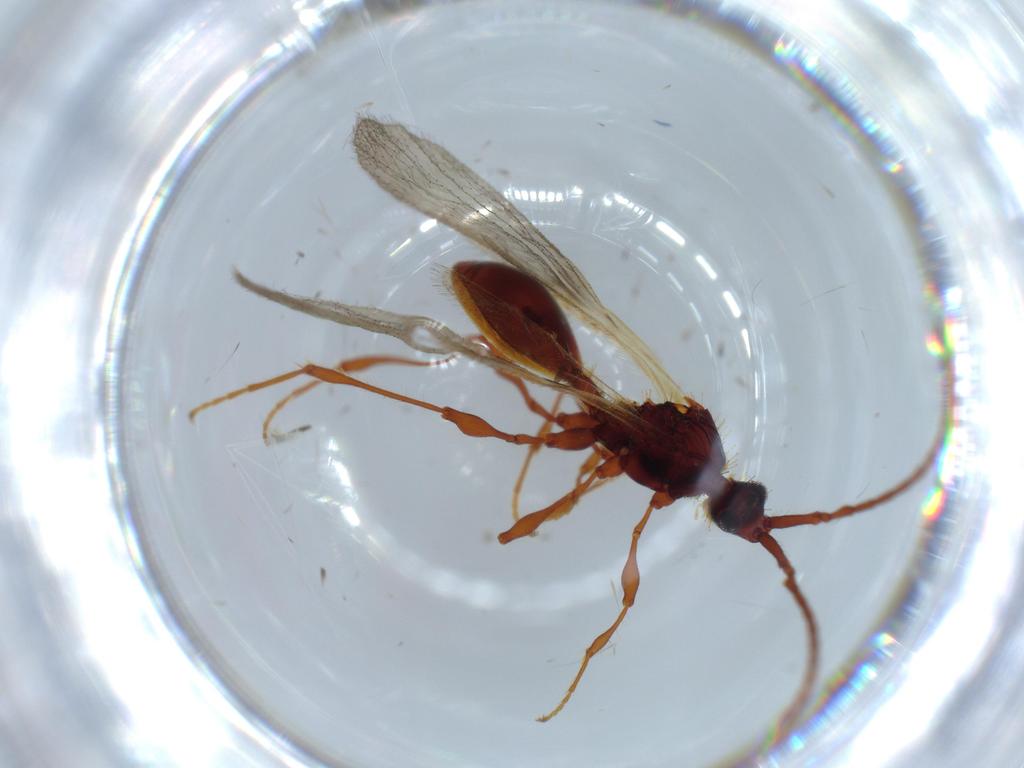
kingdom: Animalia
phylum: Arthropoda
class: Insecta
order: Hymenoptera
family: Diapriidae
